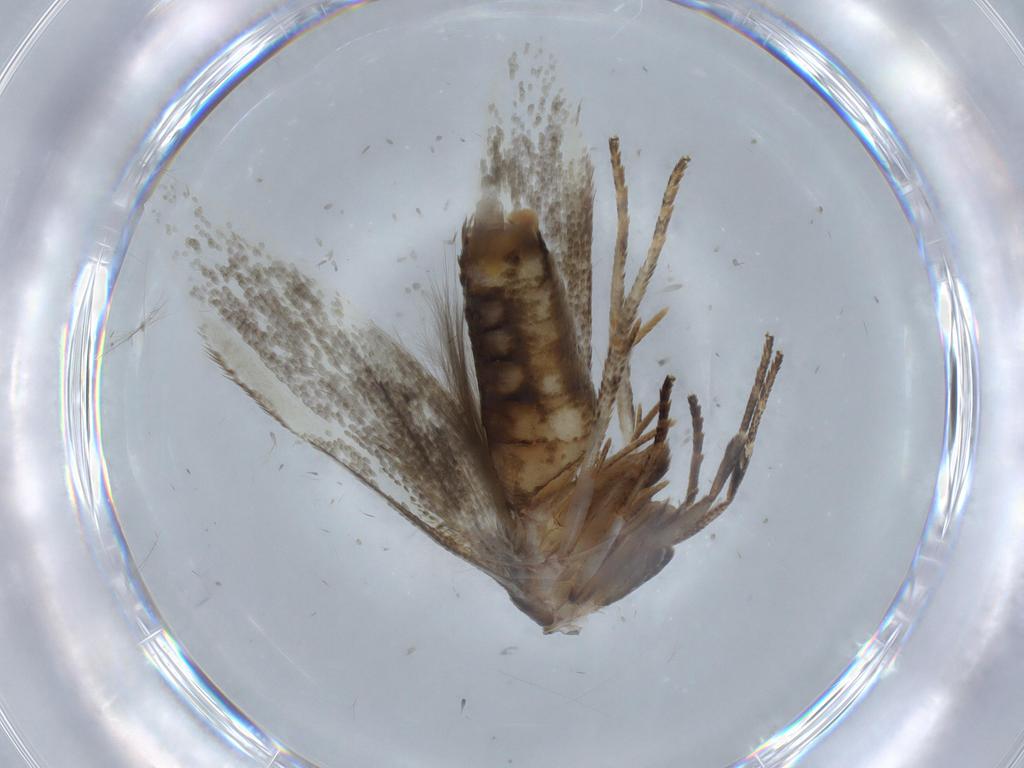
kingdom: Animalia
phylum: Arthropoda
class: Insecta
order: Lepidoptera
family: Blastobasidae
